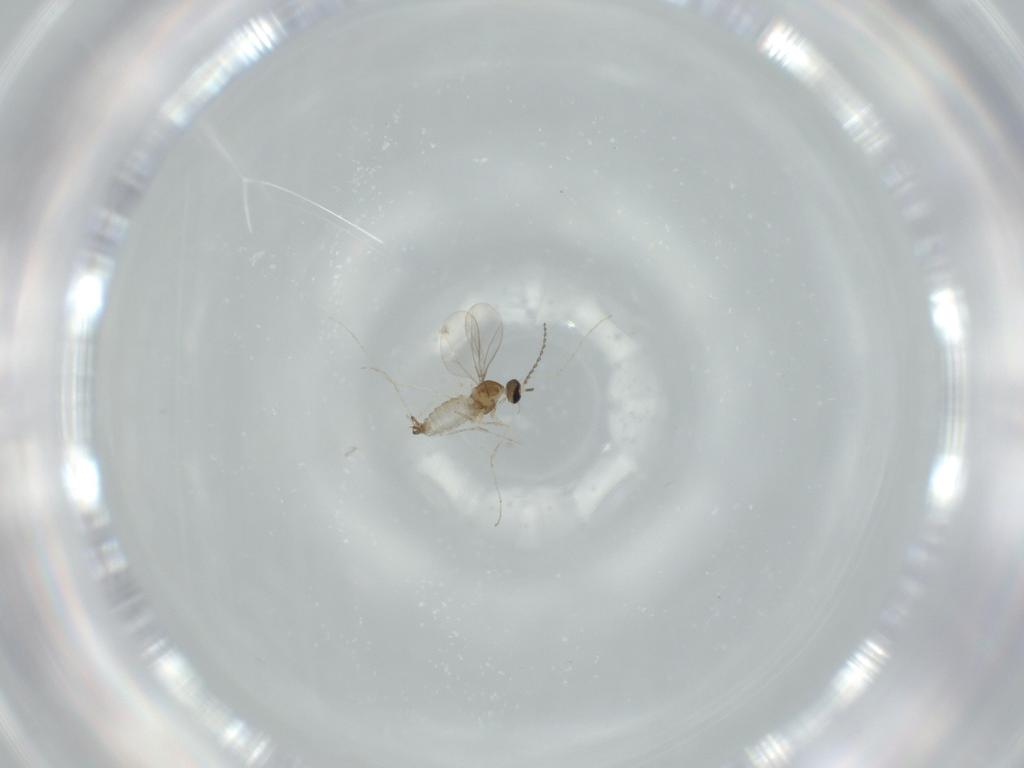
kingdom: Animalia
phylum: Arthropoda
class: Insecta
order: Diptera
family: Cecidomyiidae
